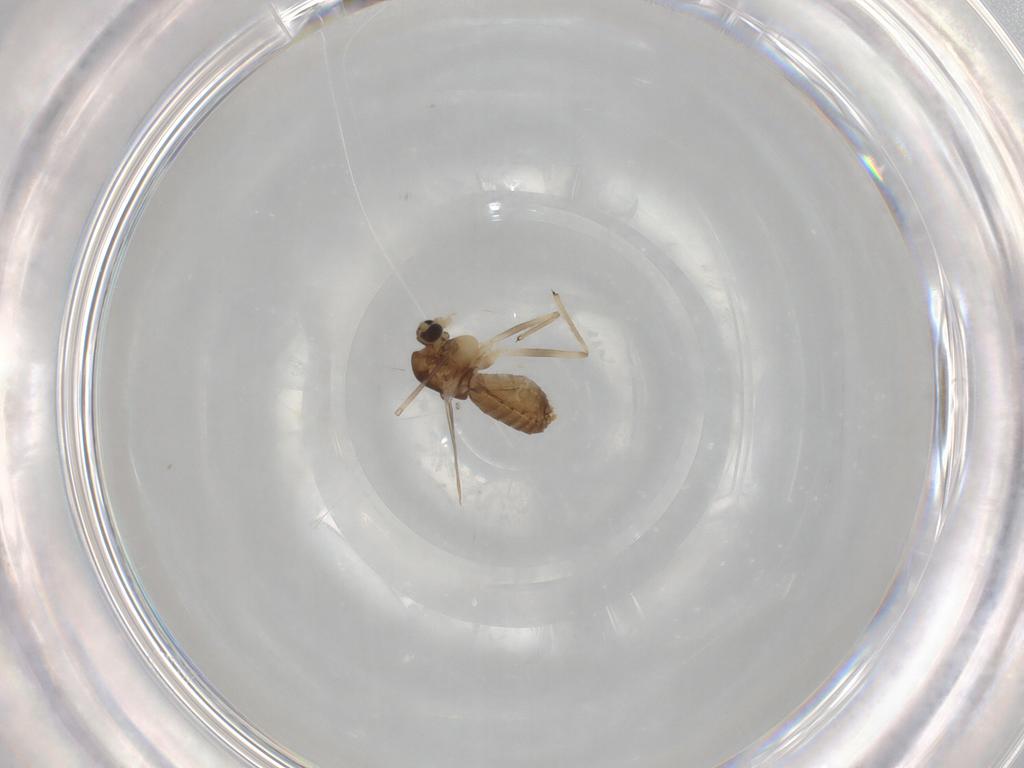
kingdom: Animalia
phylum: Arthropoda
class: Insecta
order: Diptera
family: Chironomidae
